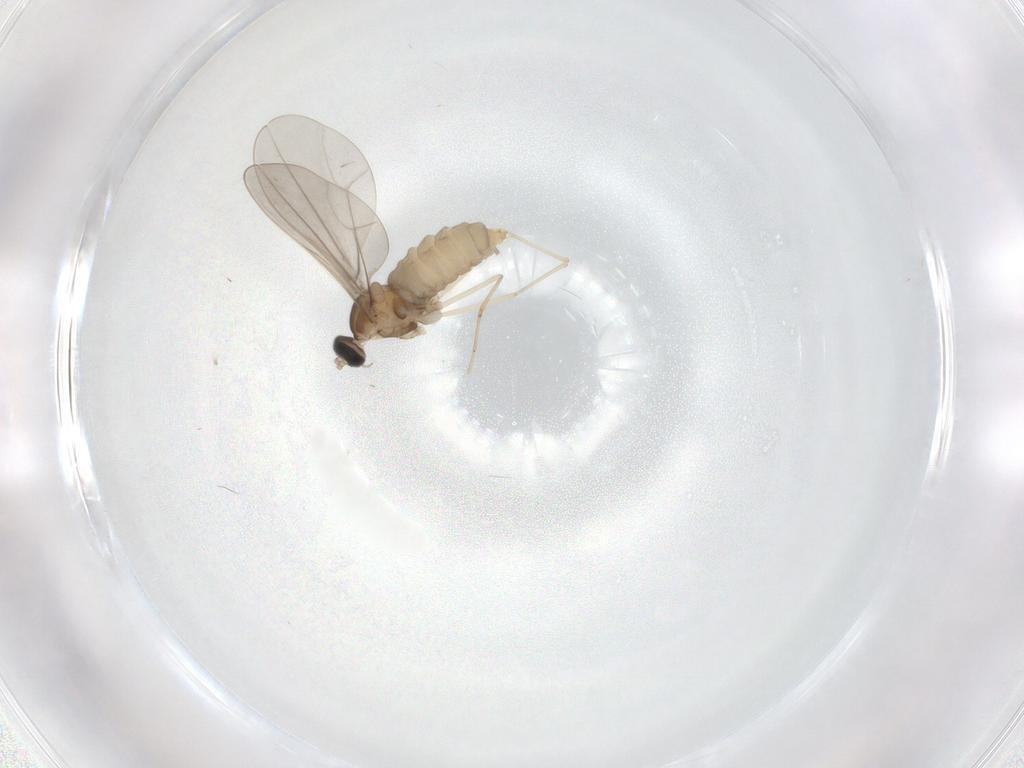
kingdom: Animalia
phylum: Arthropoda
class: Insecta
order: Diptera
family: Cecidomyiidae
